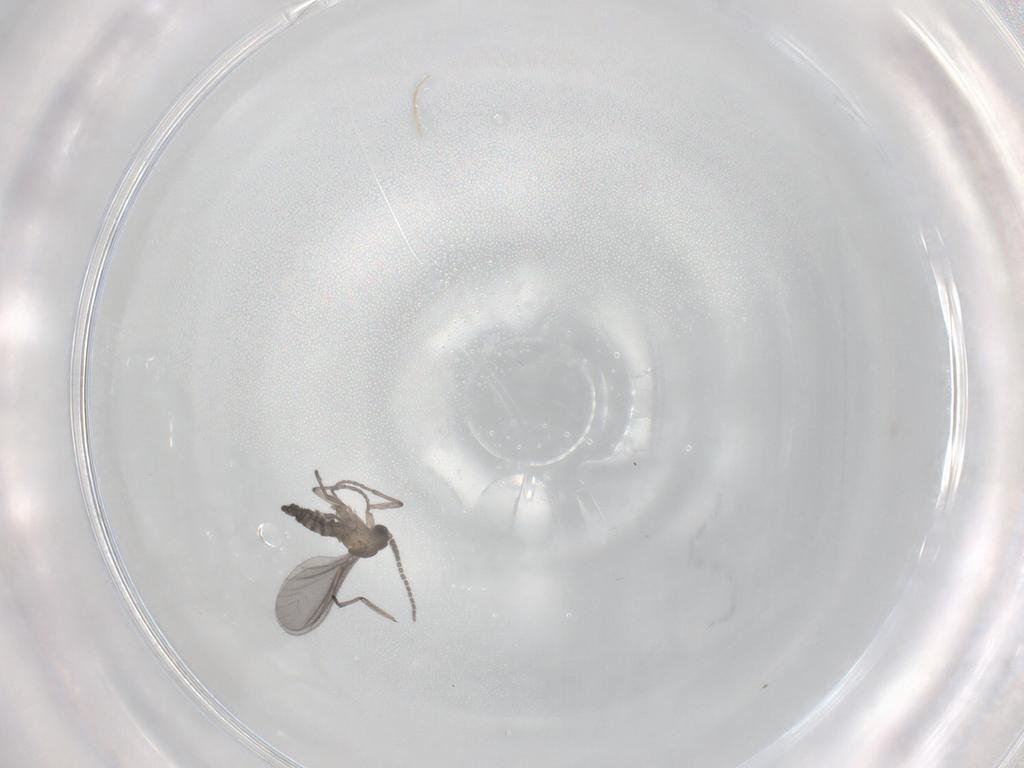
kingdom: Animalia
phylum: Arthropoda
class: Insecta
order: Diptera
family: Sciaridae
